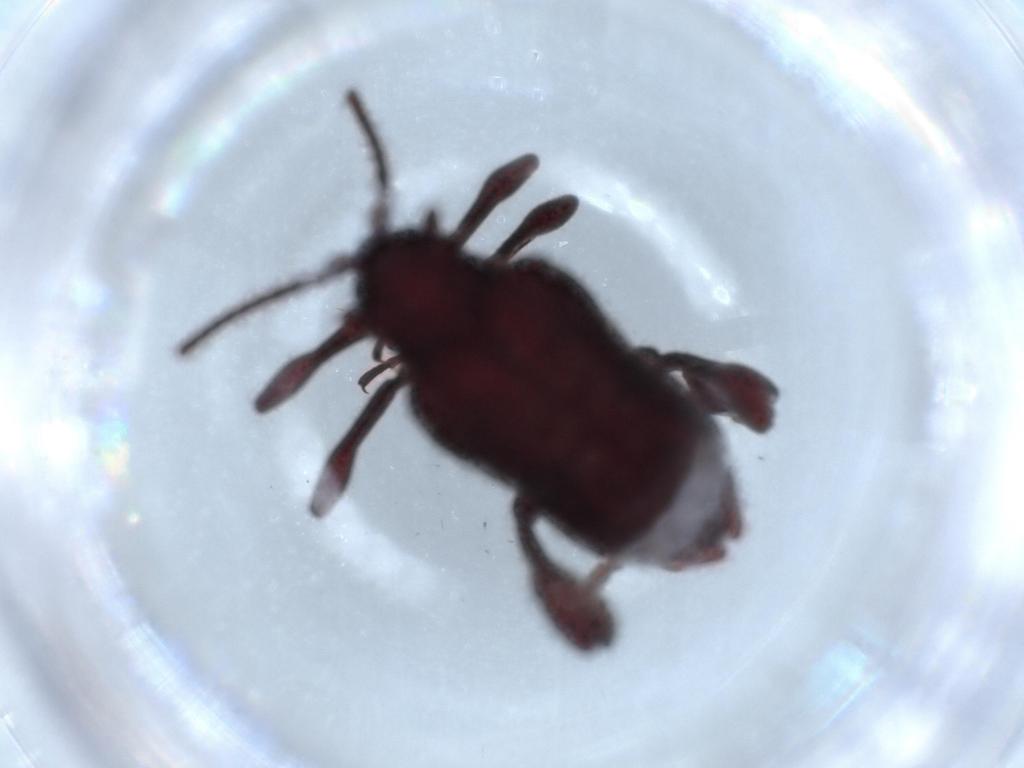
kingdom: Animalia
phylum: Arthropoda
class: Insecta
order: Coleoptera
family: Ptinidae
